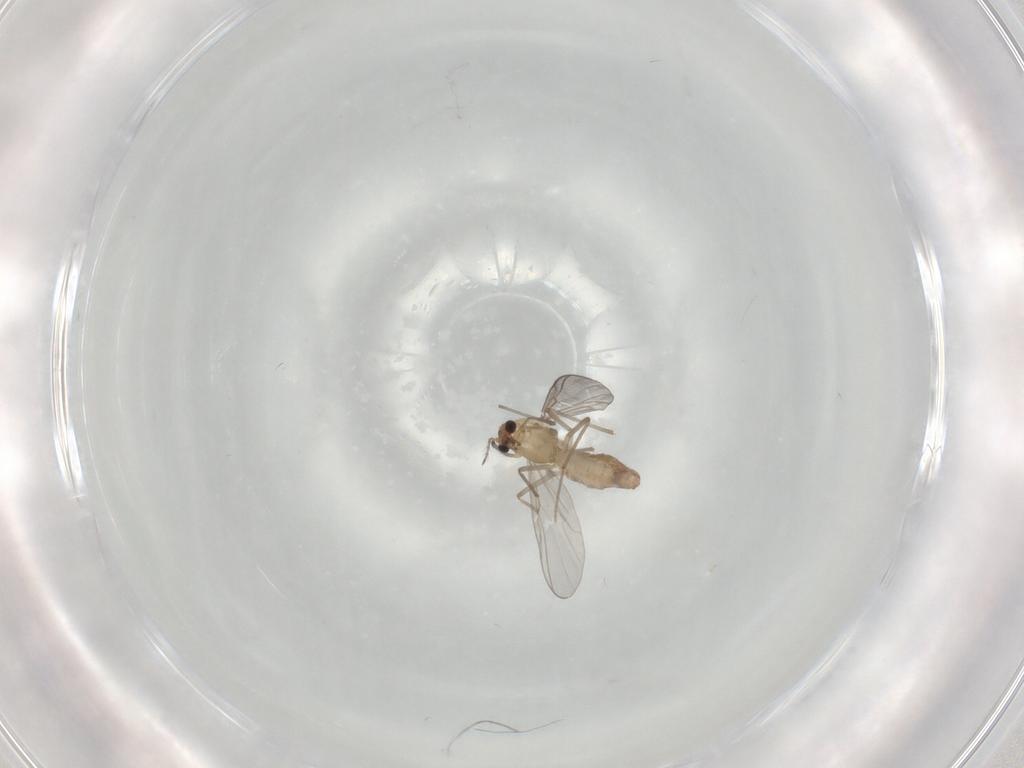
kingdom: Animalia
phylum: Arthropoda
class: Insecta
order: Diptera
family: Chironomidae
